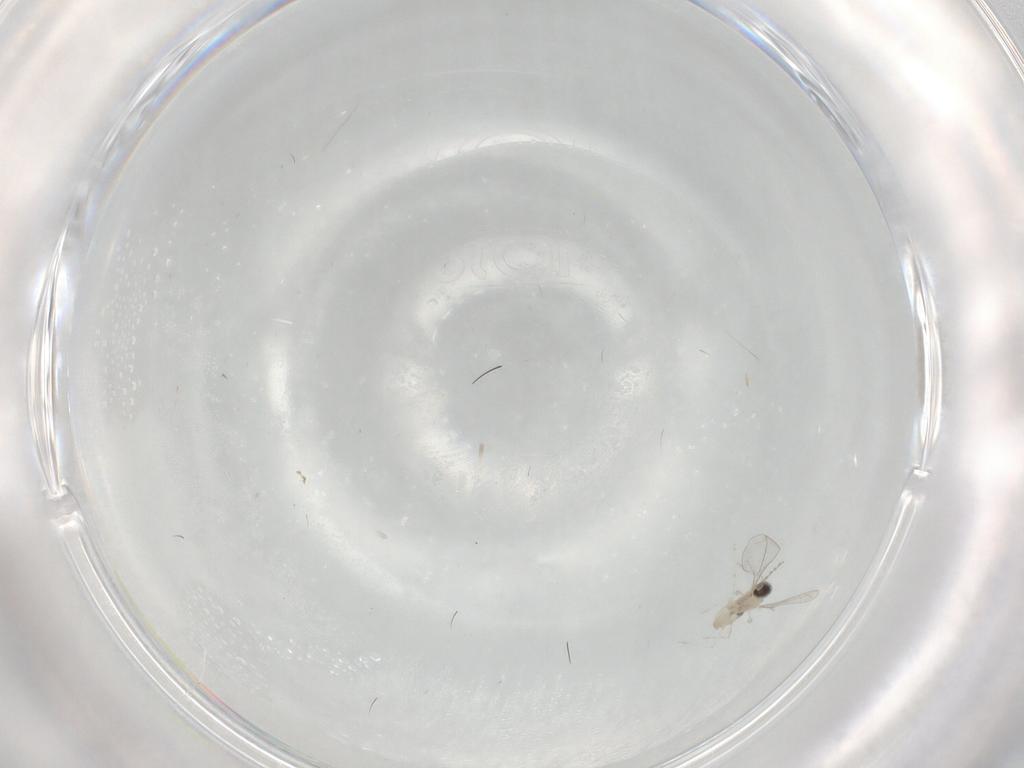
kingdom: Animalia
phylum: Arthropoda
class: Insecta
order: Diptera
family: Cecidomyiidae
